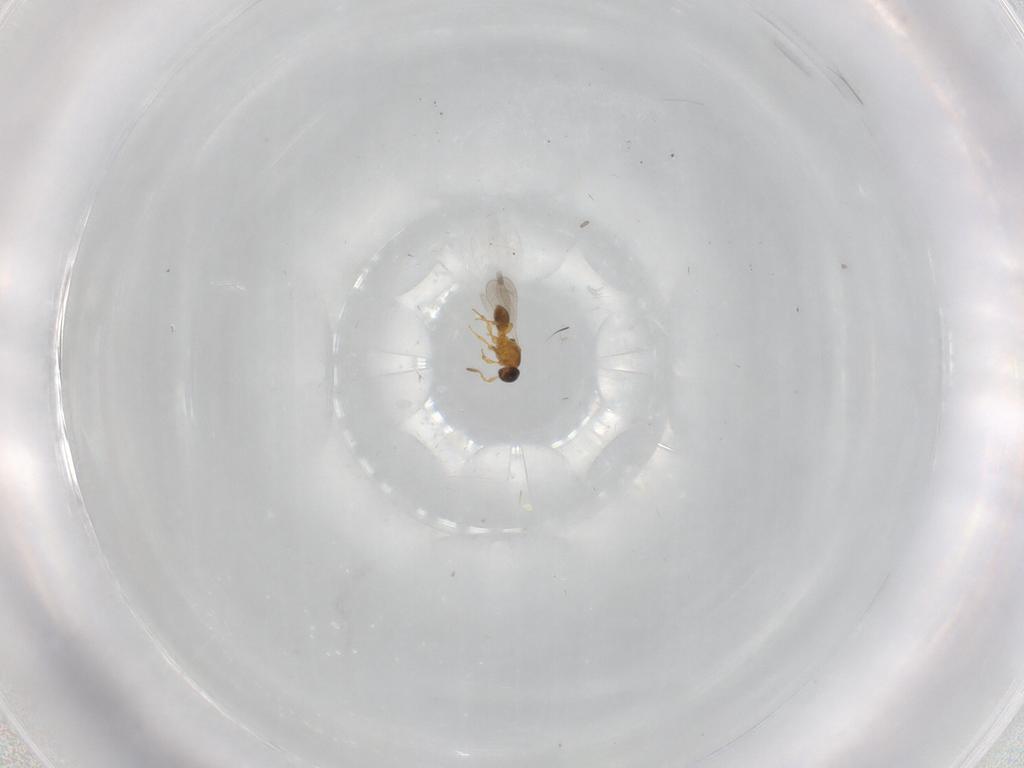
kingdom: Animalia
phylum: Arthropoda
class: Insecta
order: Hymenoptera
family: Platygastridae
